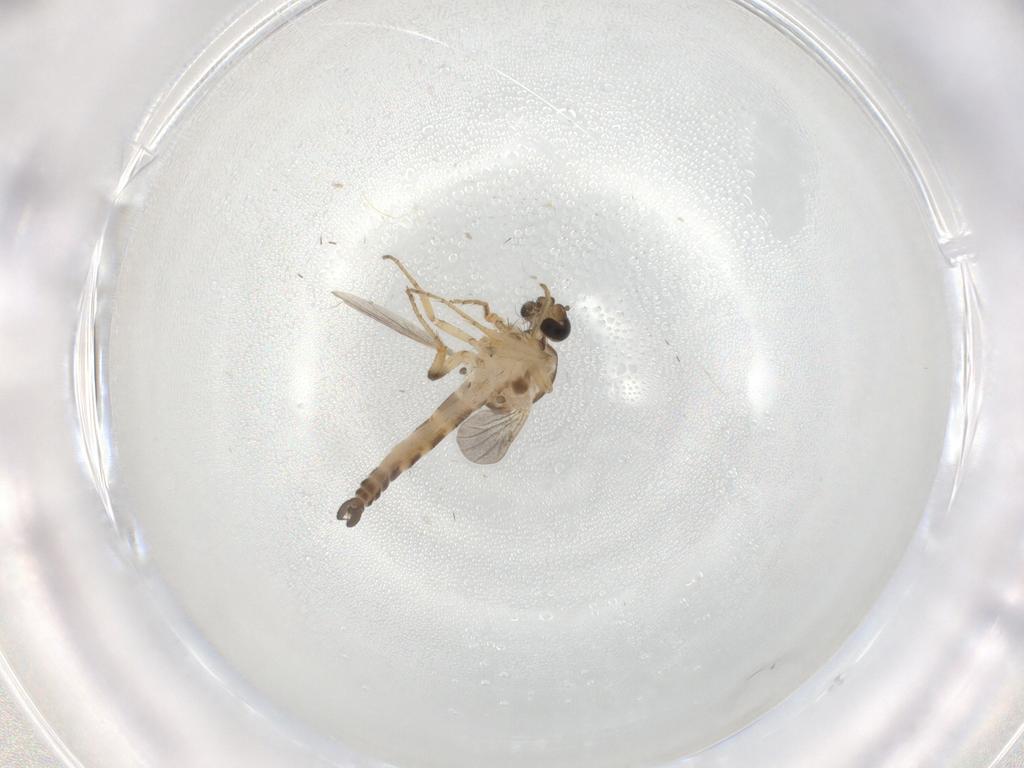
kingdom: Animalia
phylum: Arthropoda
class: Insecta
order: Diptera
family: Ceratopogonidae
